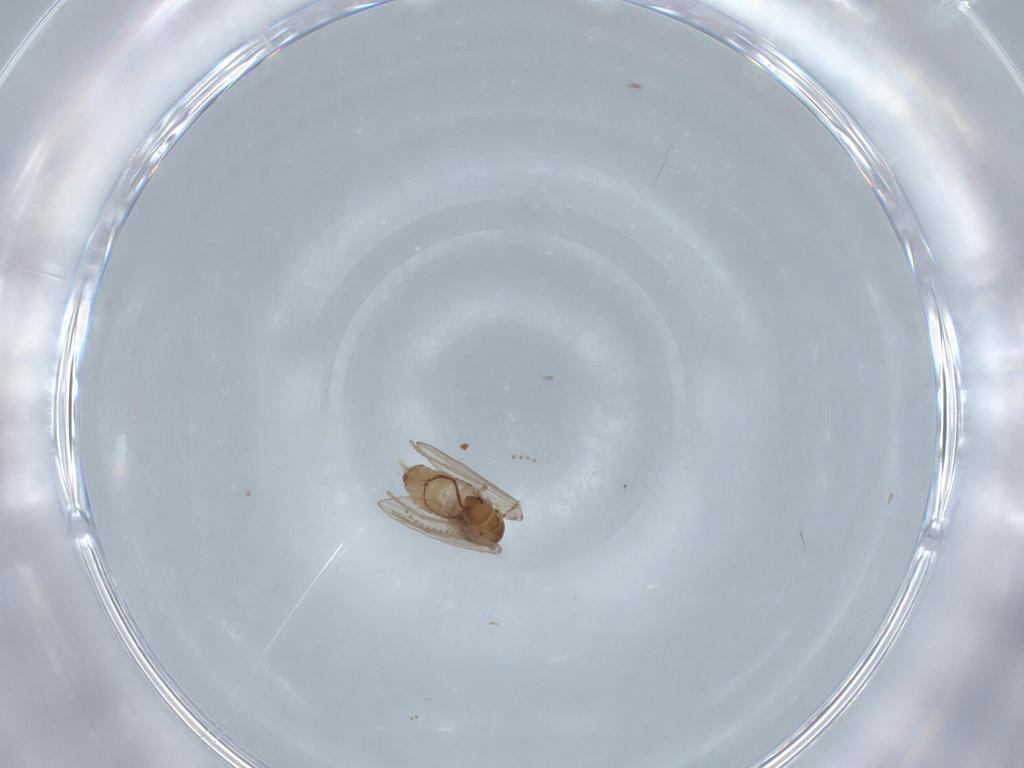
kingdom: Animalia
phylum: Arthropoda
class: Insecta
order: Diptera
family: Psychodidae
